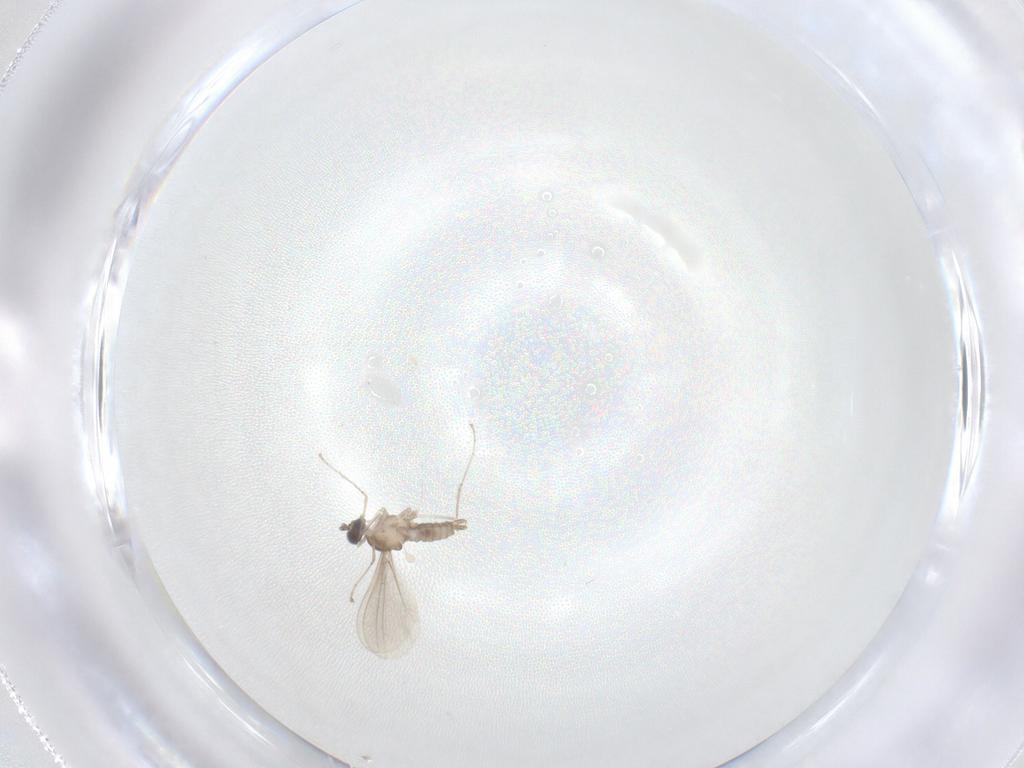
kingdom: Animalia
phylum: Arthropoda
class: Insecta
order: Diptera
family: Cecidomyiidae
